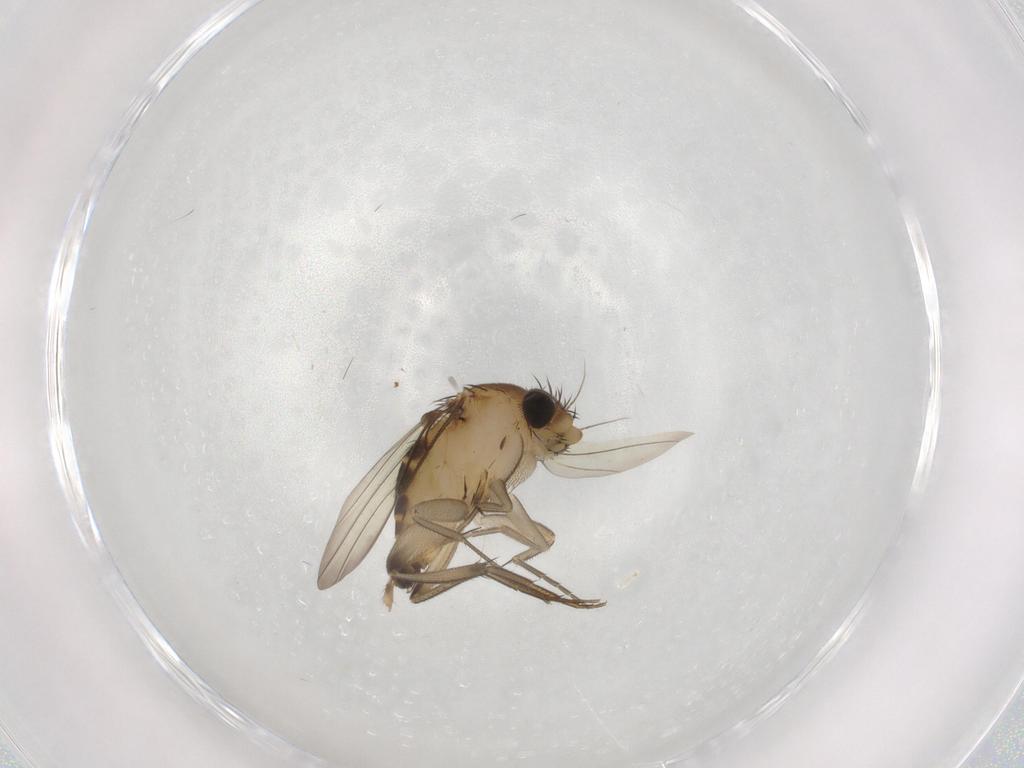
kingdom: Animalia
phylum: Arthropoda
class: Insecta
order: Diptera
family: Phoridae
